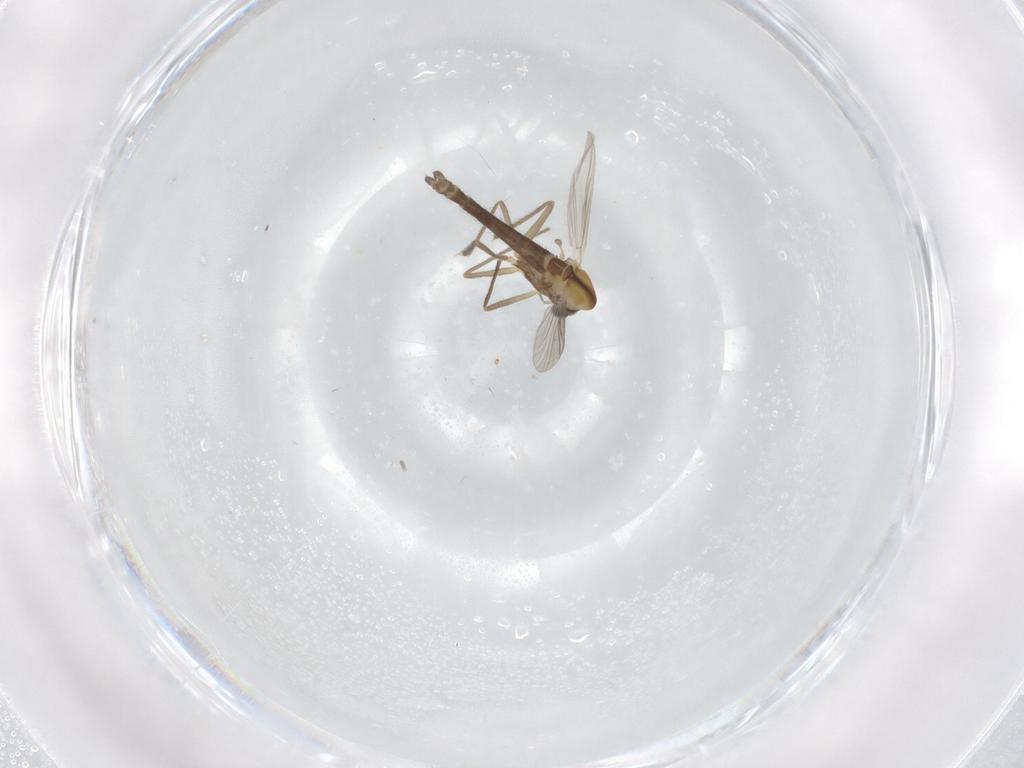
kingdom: Animalia
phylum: Arthropoda
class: Insecta
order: Diptera
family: Chironomidae
